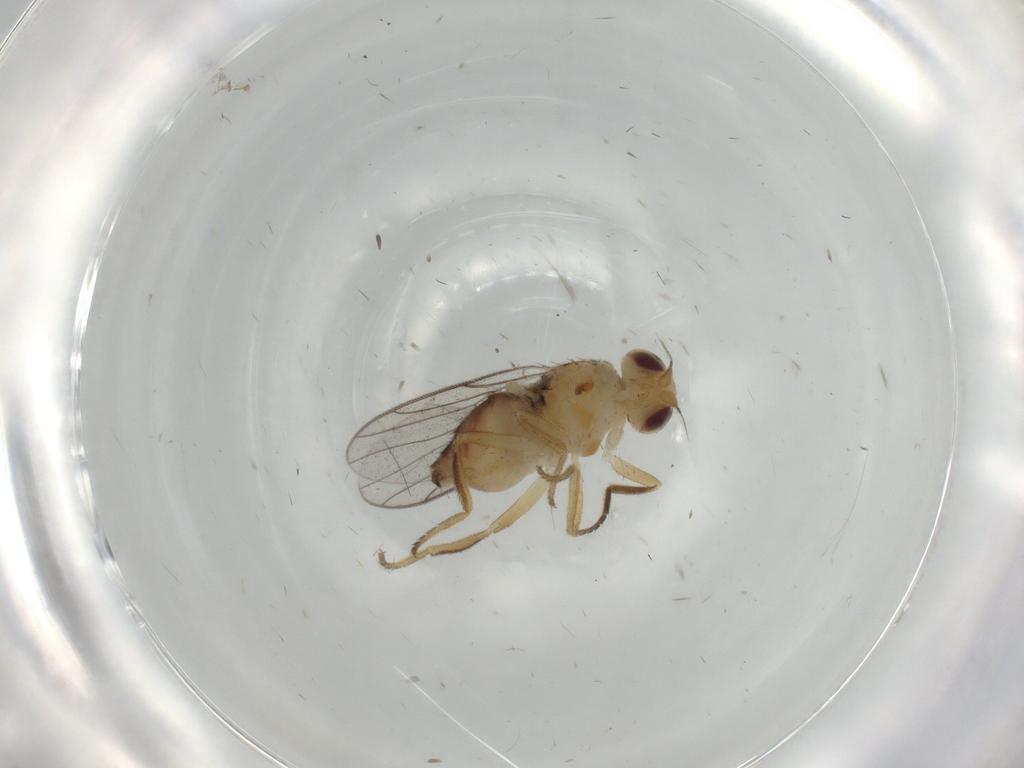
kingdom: Animalia
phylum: Arthropoda
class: Insecta
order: Diptera
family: Chloropidae
